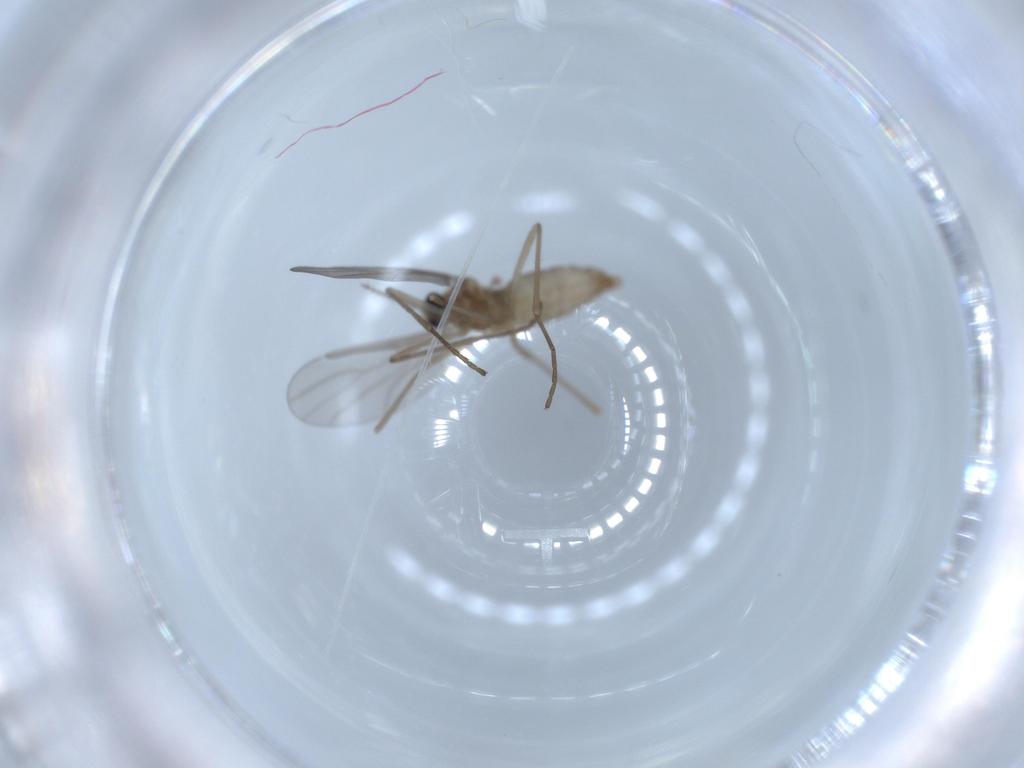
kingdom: Animalia
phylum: Arthropoda
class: Insecta
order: Diptera
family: Cecidomyiidae
